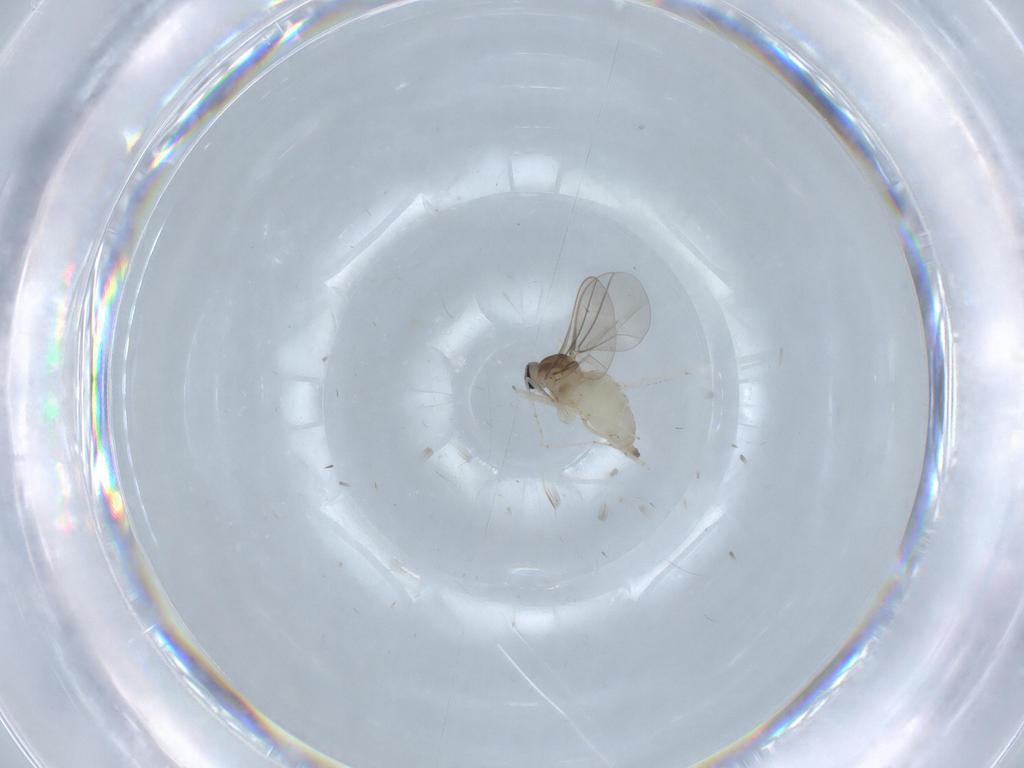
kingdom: Animalia
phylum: Arthropoda
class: Insecta
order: Diptera
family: Cecidomyiidae
